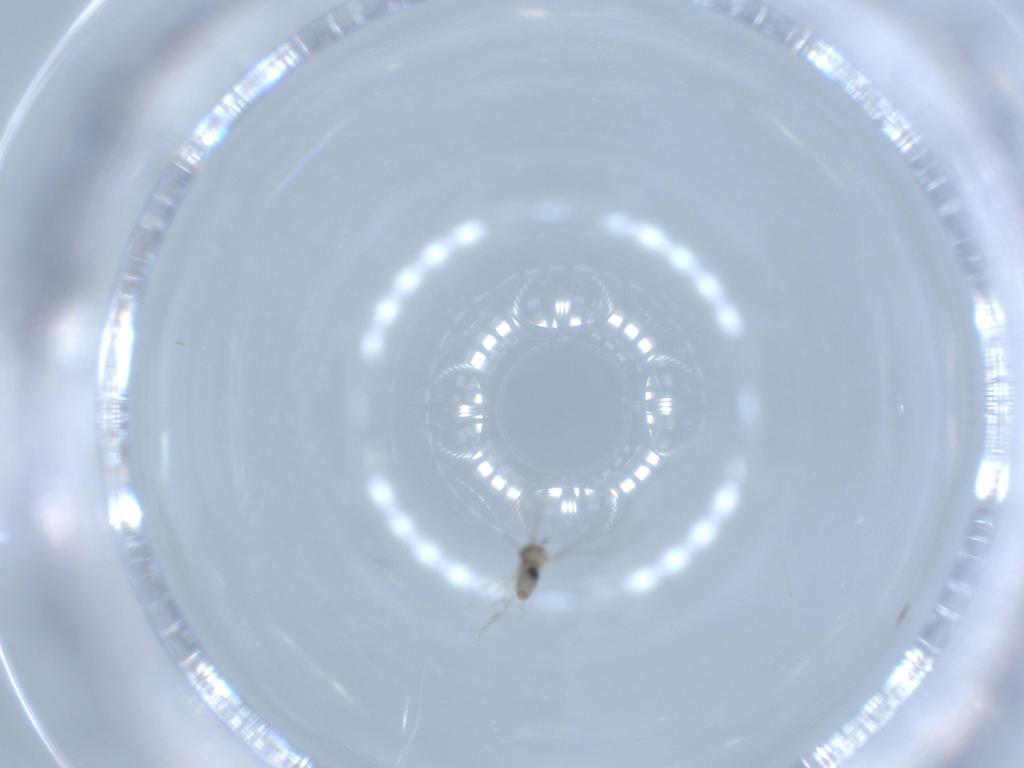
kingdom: Animalia
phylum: Arthropoda
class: Insecta
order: Diptera
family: Cecidomyiidae
